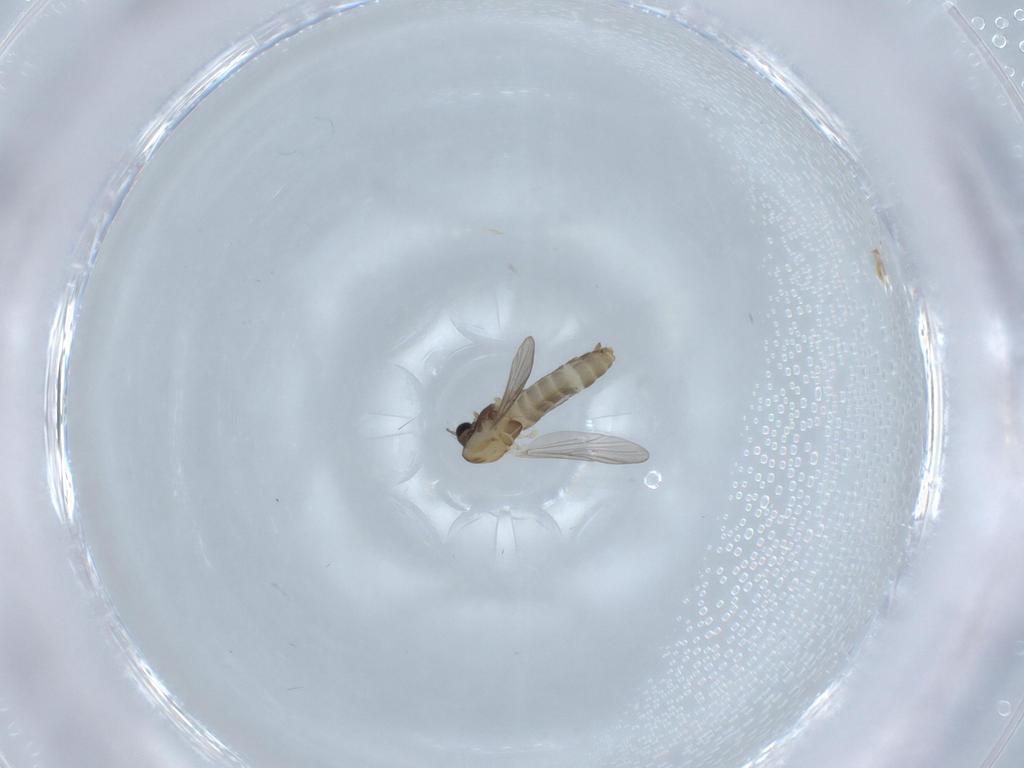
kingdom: Animalia
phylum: Arthropoda
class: Insecta
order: Diptera
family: Chironomidae
